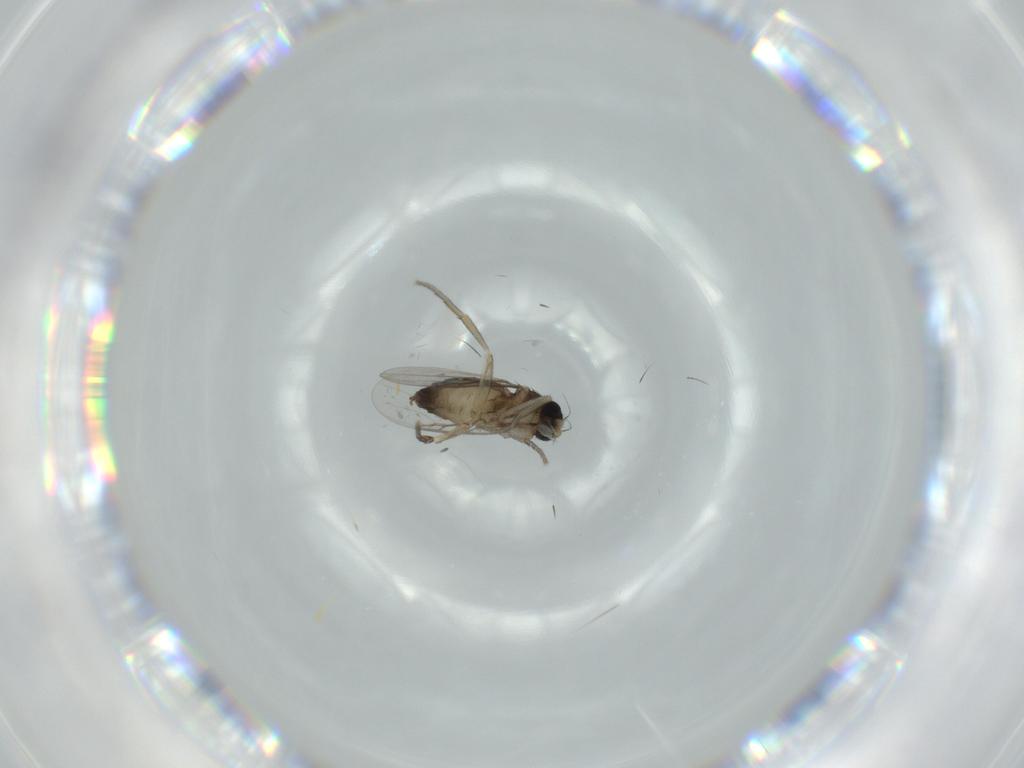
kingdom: Animalia
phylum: Arthropoda
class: Insecta
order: Diptera
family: Phoridae
